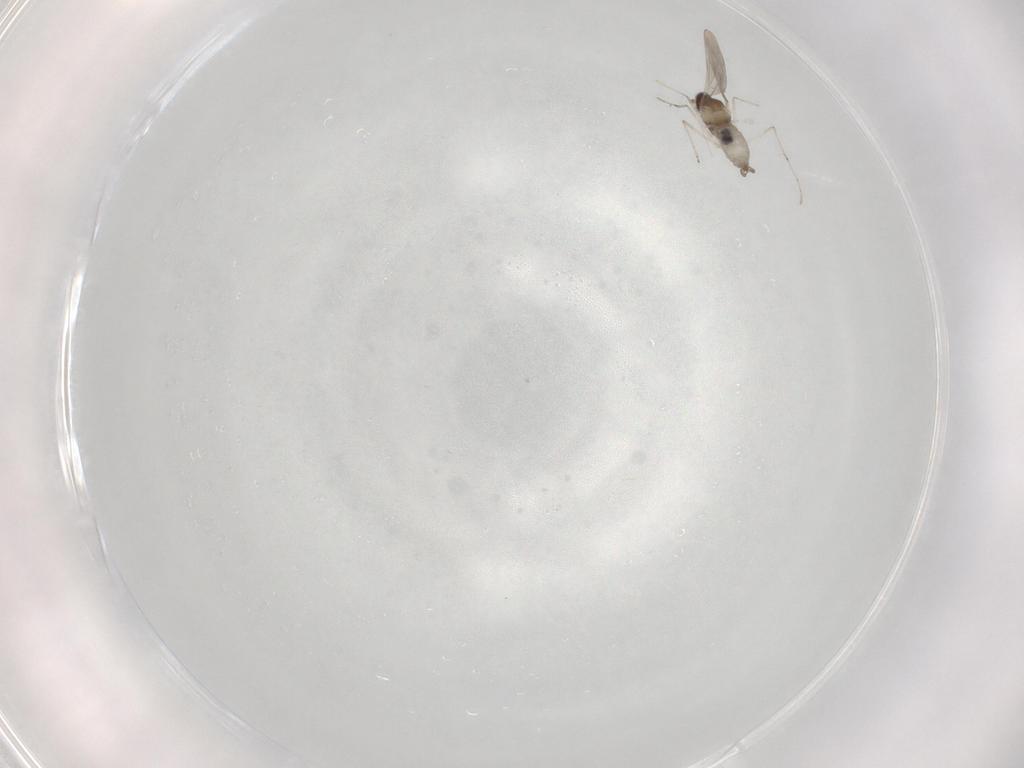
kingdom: Animalia
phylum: Arthropoda
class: Insecta
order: Diptera
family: Cecidomyiidae
